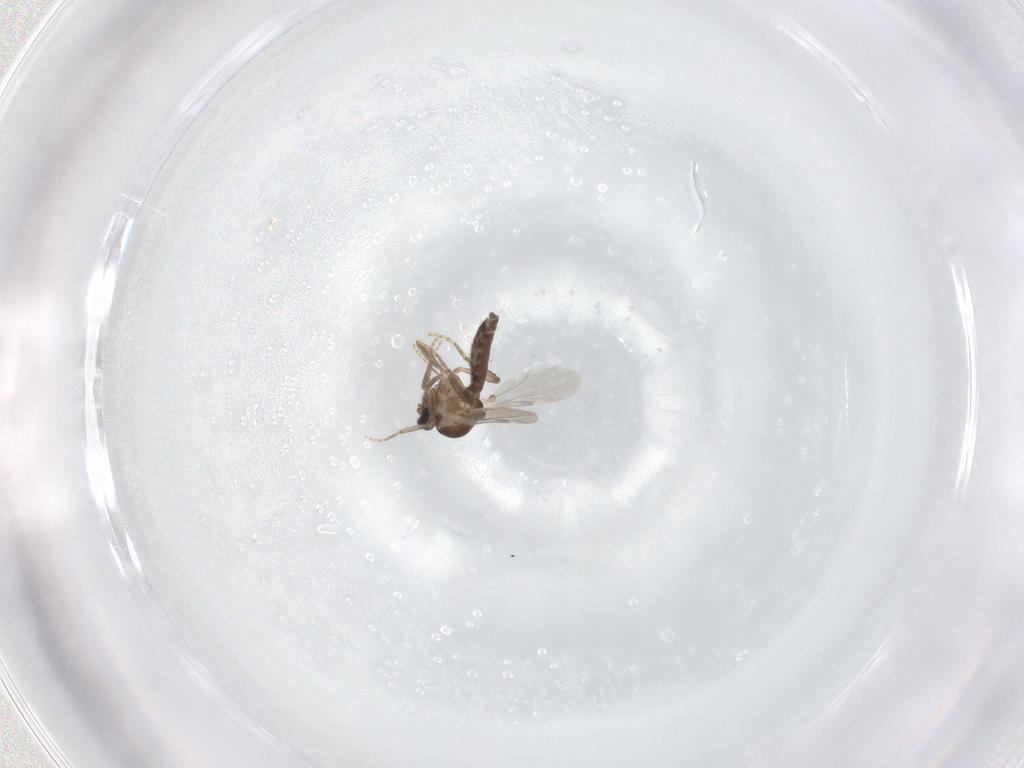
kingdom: Animalia
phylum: Arthropoda
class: Insecta
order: Diptera
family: Ceratopogonidae
